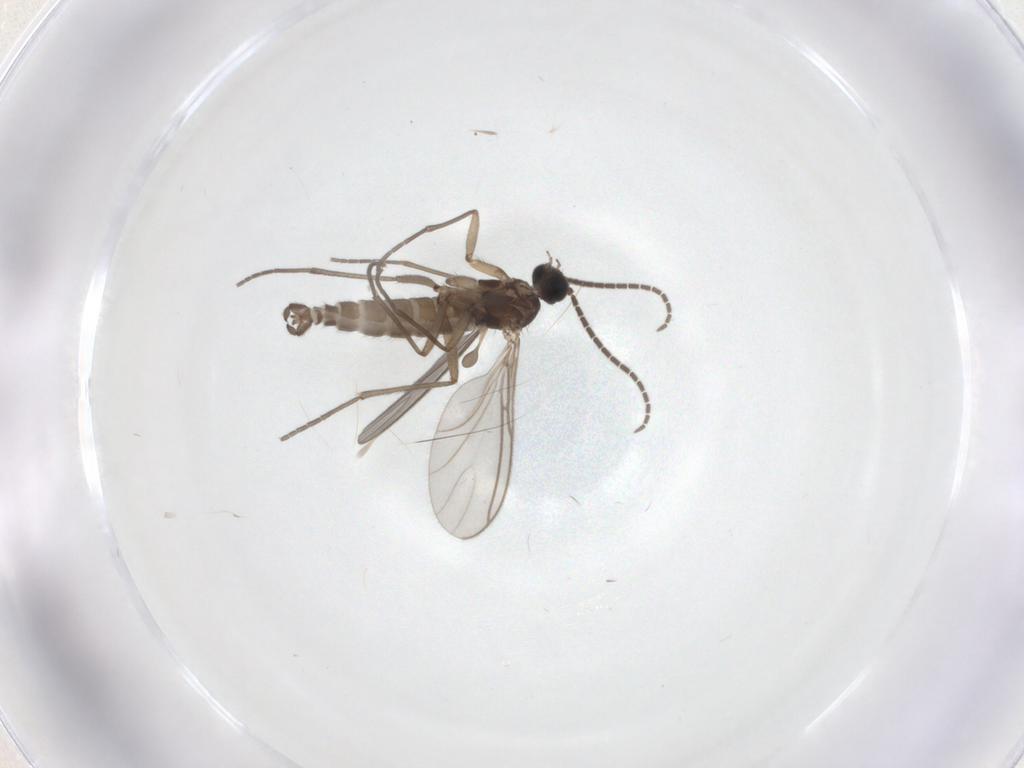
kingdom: Animalia
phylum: Arthropoda
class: Insecta
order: Diptera
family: Sciaridae
